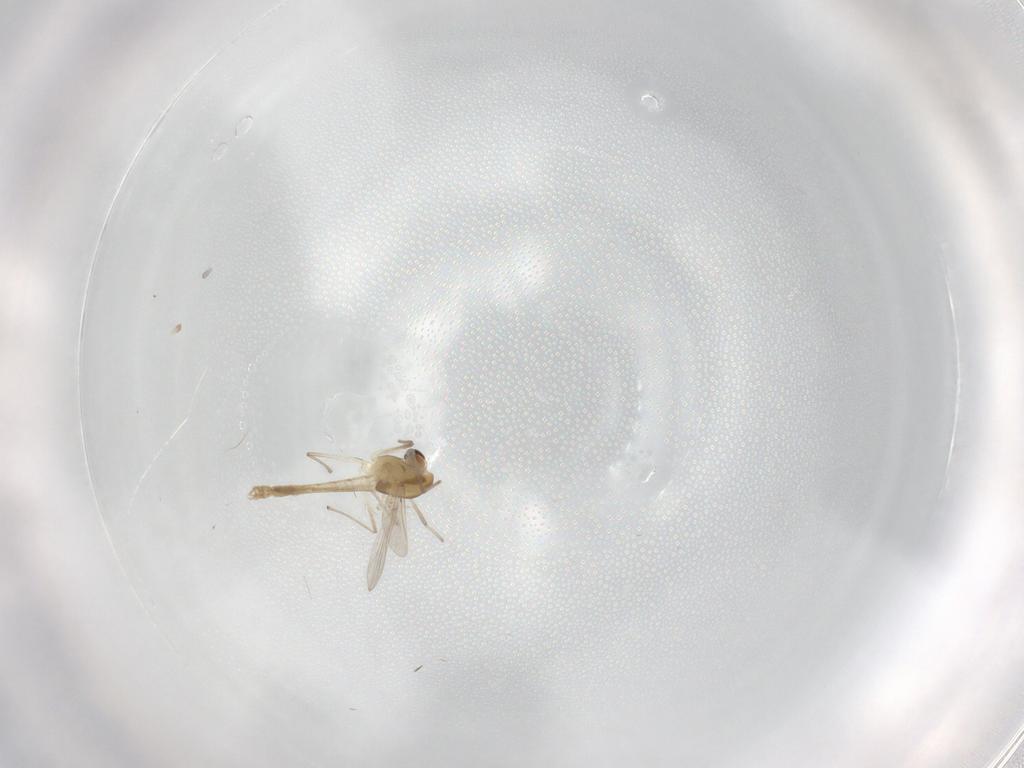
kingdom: Animalia
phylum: Arthropoda
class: Insecta
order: Diptera
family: Chironomidae
